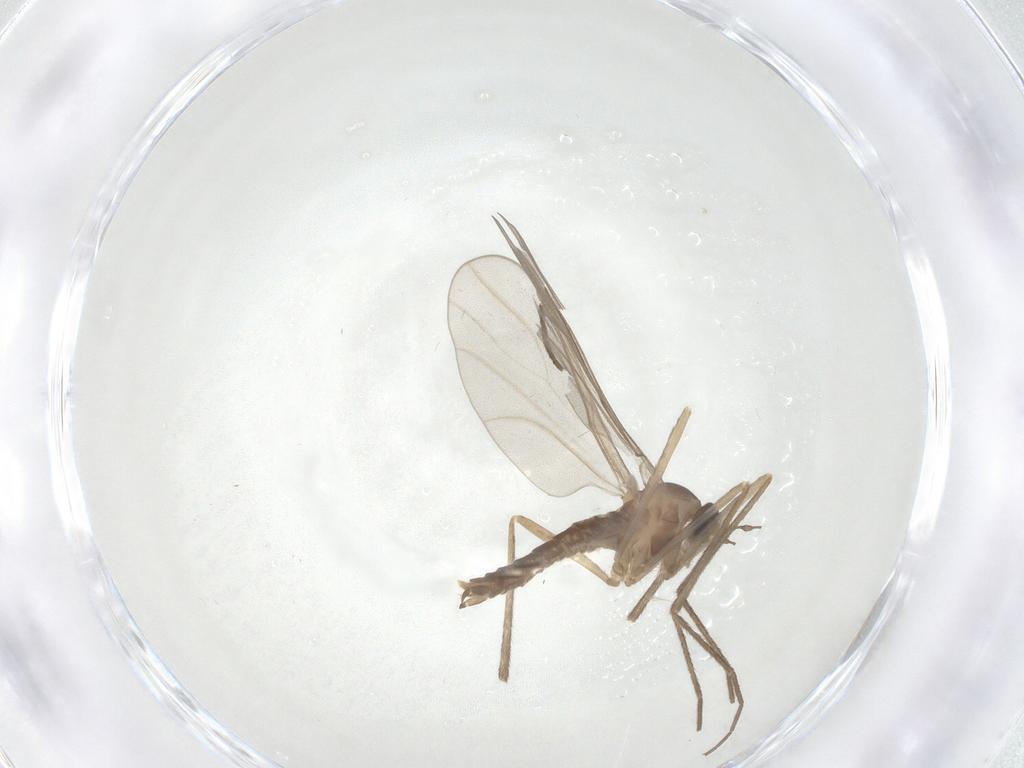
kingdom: Animalia
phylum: Arthropoda
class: Insecta
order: Diptera
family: Cecidomyiidae
